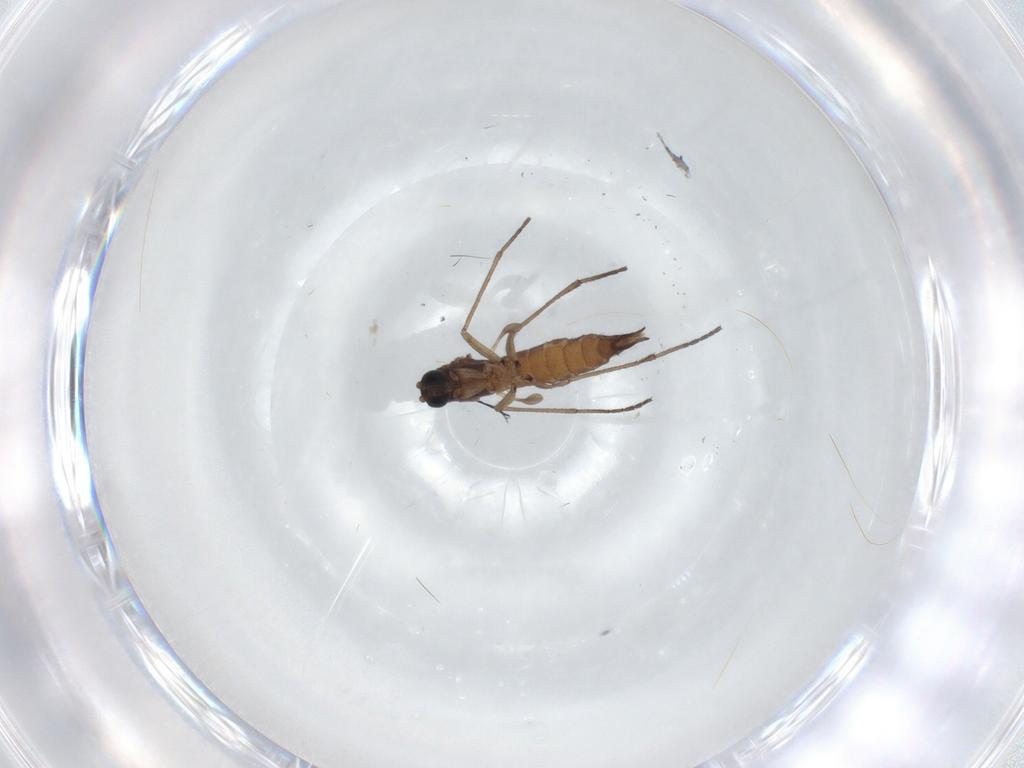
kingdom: Animalia
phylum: Arthropoda
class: Insecta
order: Diptera
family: Sciaridae
